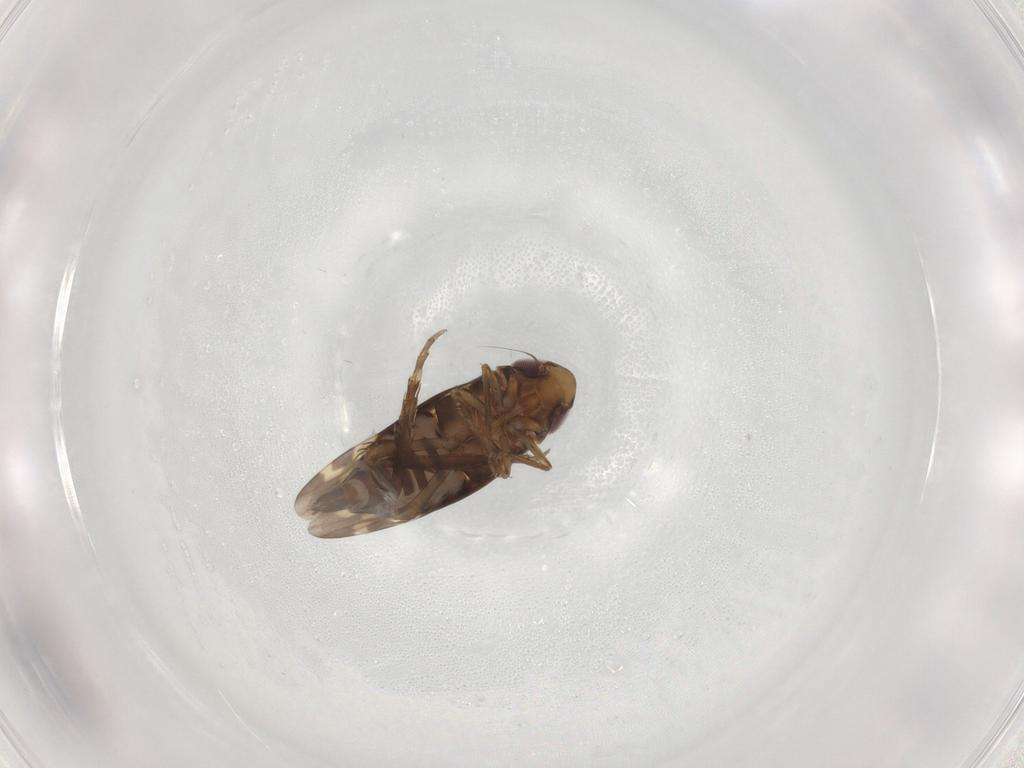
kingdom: Animalia
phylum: Arthropoda
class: Insecta
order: Hemiptera
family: Cicadellidae
